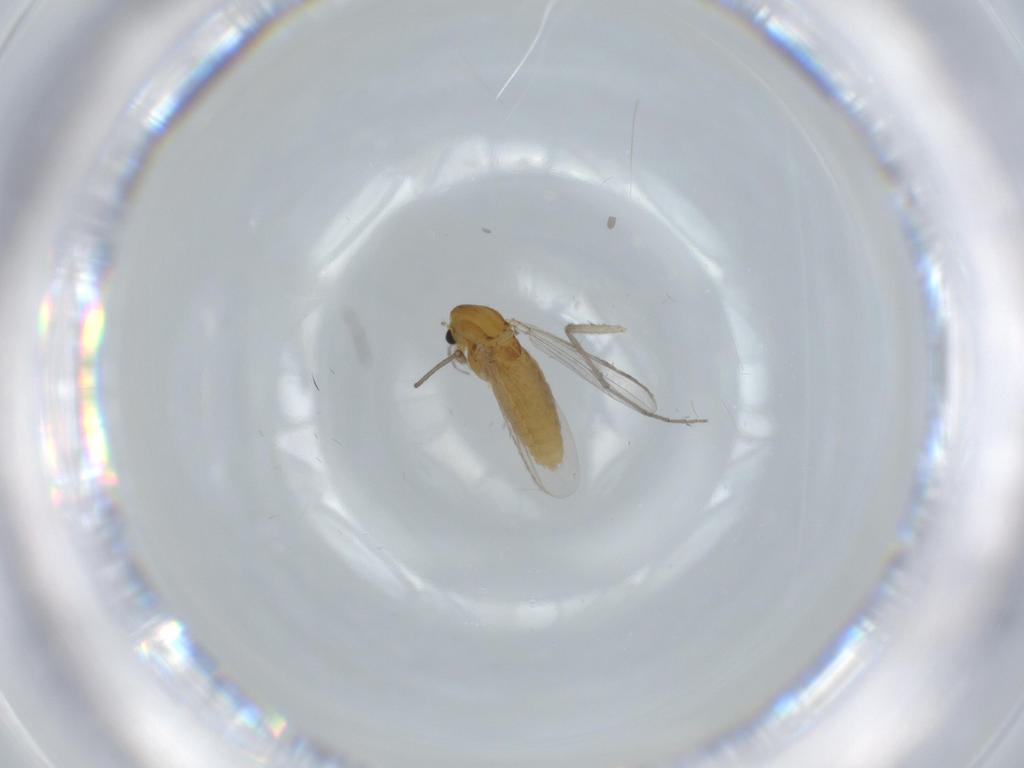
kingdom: Animalia
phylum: Arthropoda
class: Insecta
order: Diptera
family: Chironomidae
